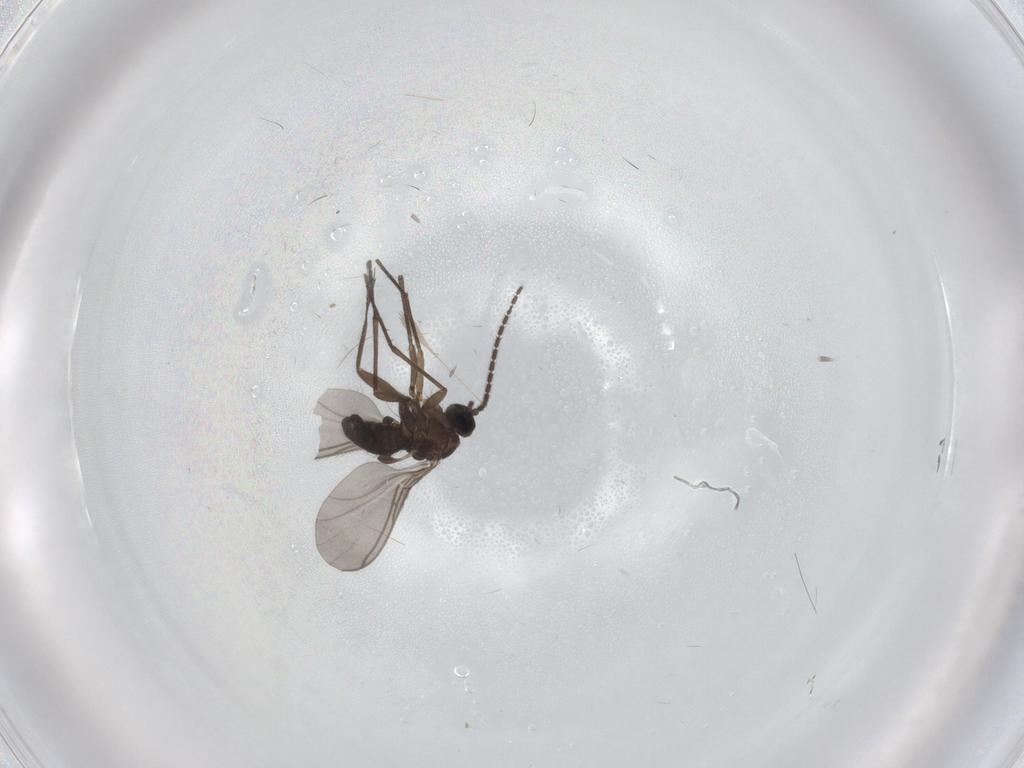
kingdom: Animalia
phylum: Arthropoda
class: Insecta
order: Diptera
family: Sciaridae
